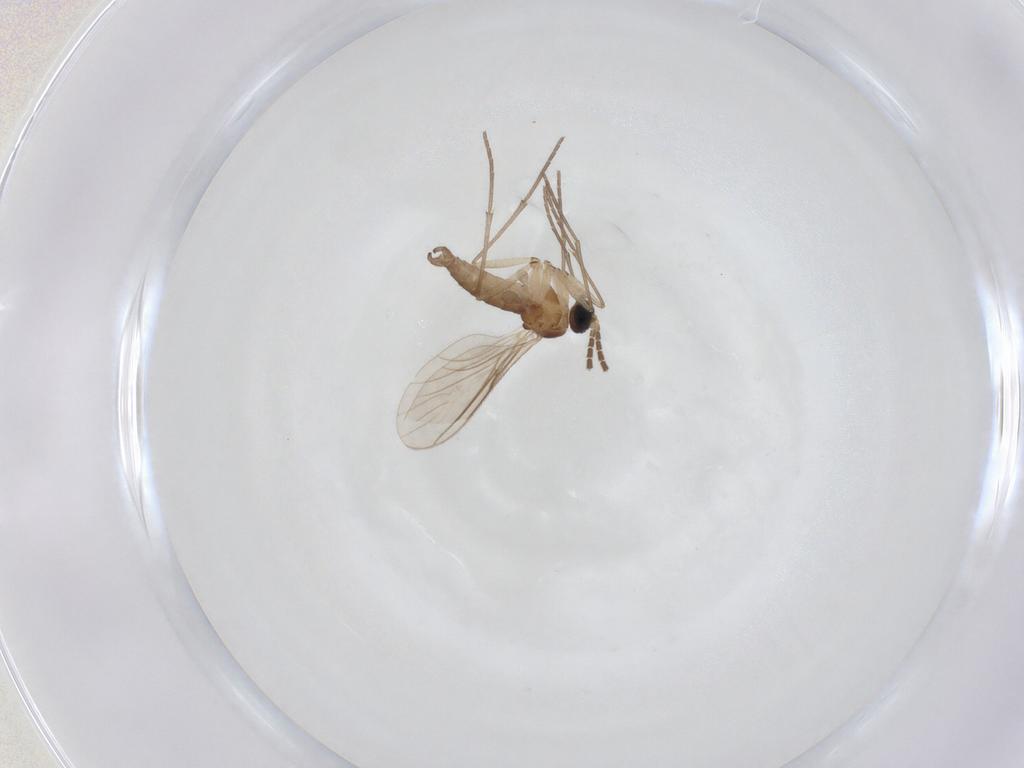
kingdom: Animalia
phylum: Arthropoda
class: Insecta
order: Diptera
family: Sciaridae
